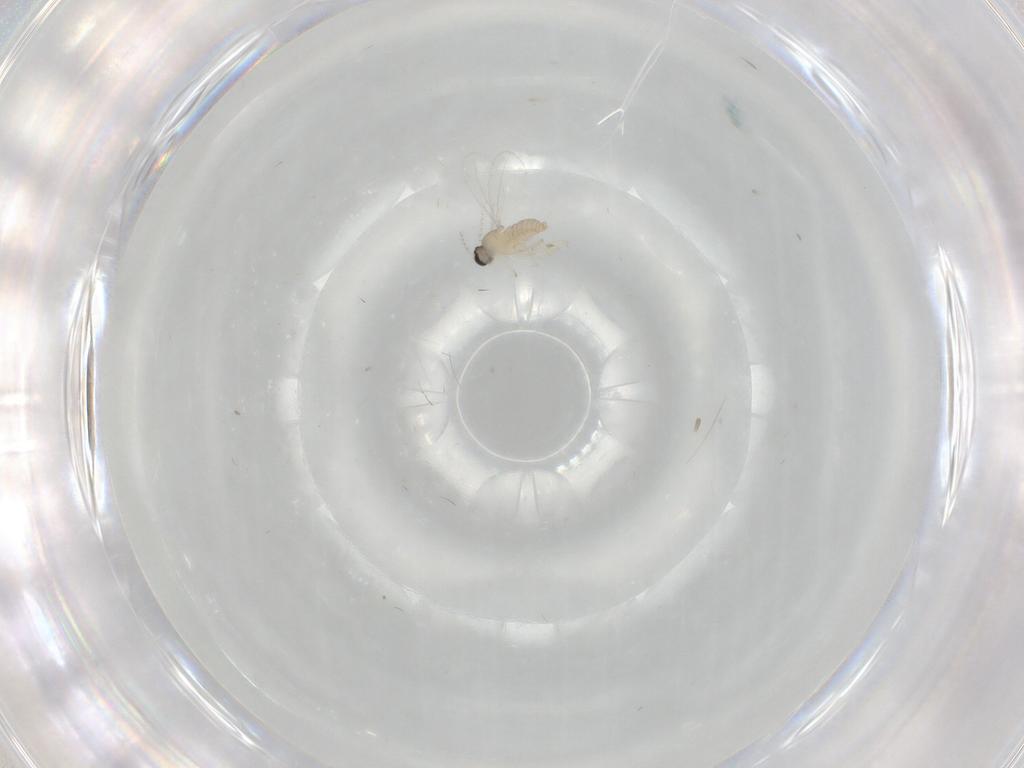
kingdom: Animalia
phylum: Arthropoda
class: Insecta
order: Diptera
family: Cecidomyiidae
